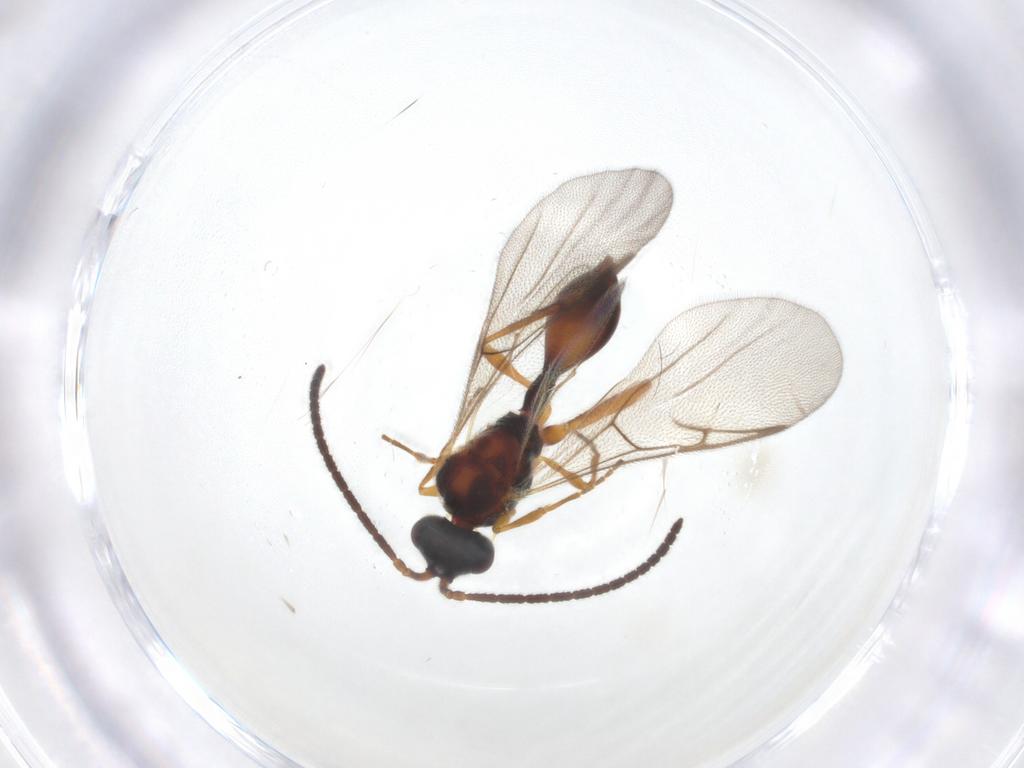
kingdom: Animalia
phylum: Arthropoda
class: Insecta
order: Hymenoptera
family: Diapriidae
